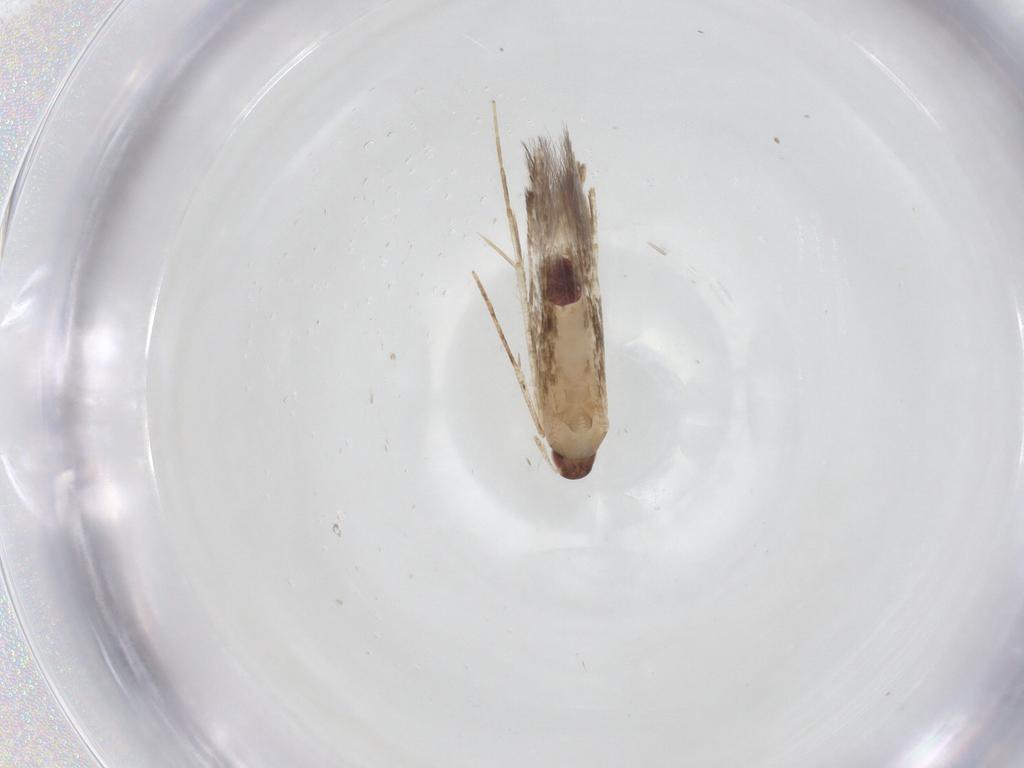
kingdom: Animalia
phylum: Arthropoda
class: Insecta
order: Lepidoptera
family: Cosmopterigidae
